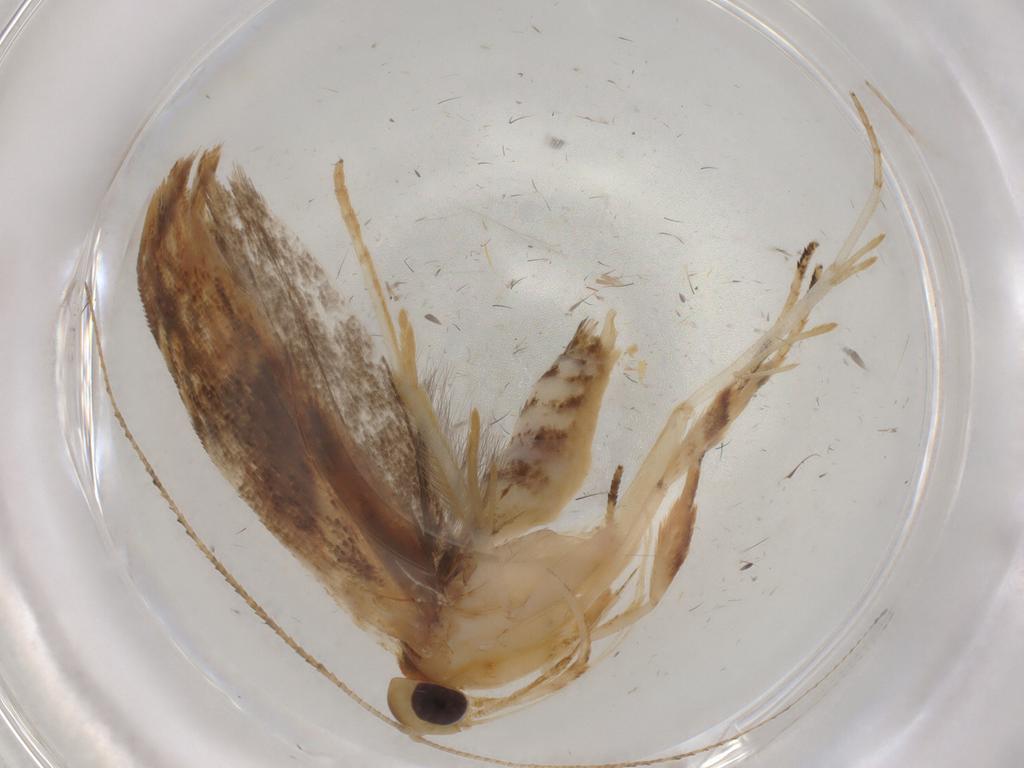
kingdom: Animalia
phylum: Arthropoda
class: Insecta
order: Lepidoptera
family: Gelechiidae
